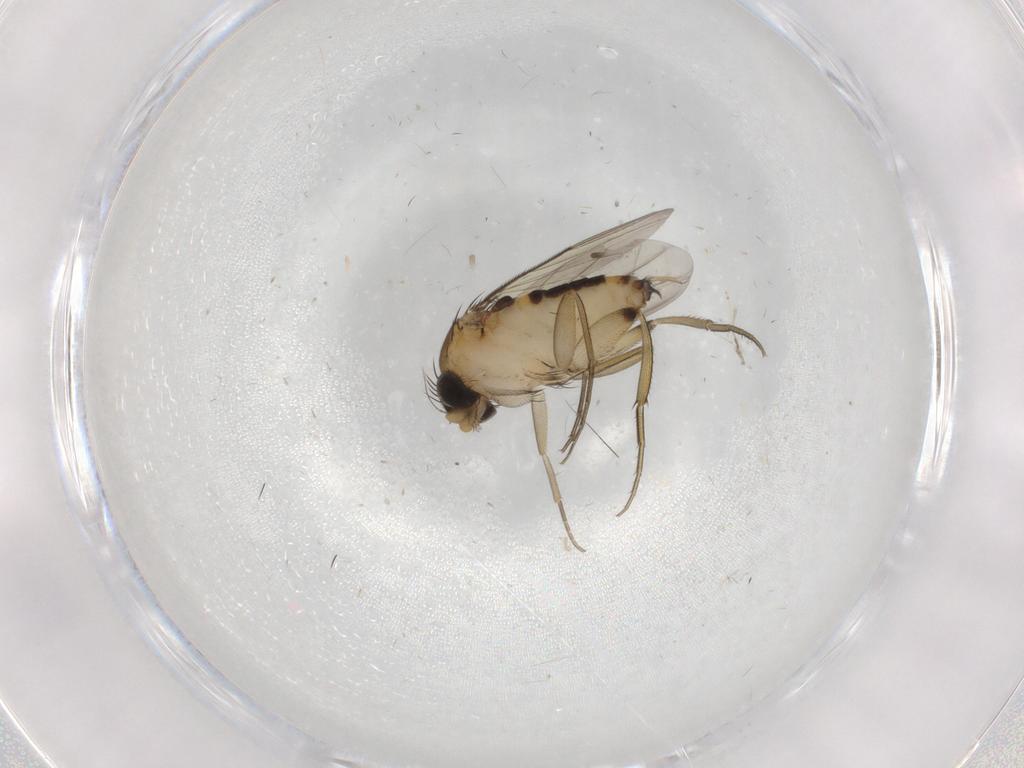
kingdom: Animalia
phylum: Arthropoda
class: Insecta
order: Diptera
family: Phoridae
